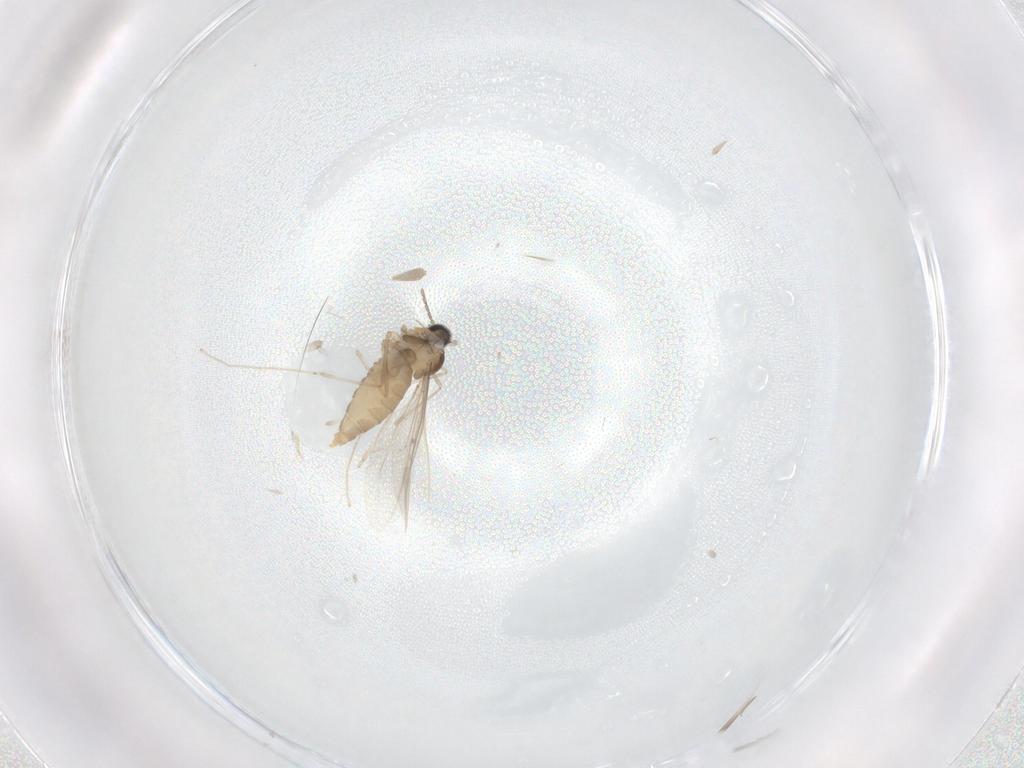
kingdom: Animalia
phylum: Arthropoda
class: Insecta
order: Diptera
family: Cecidomyiidae
